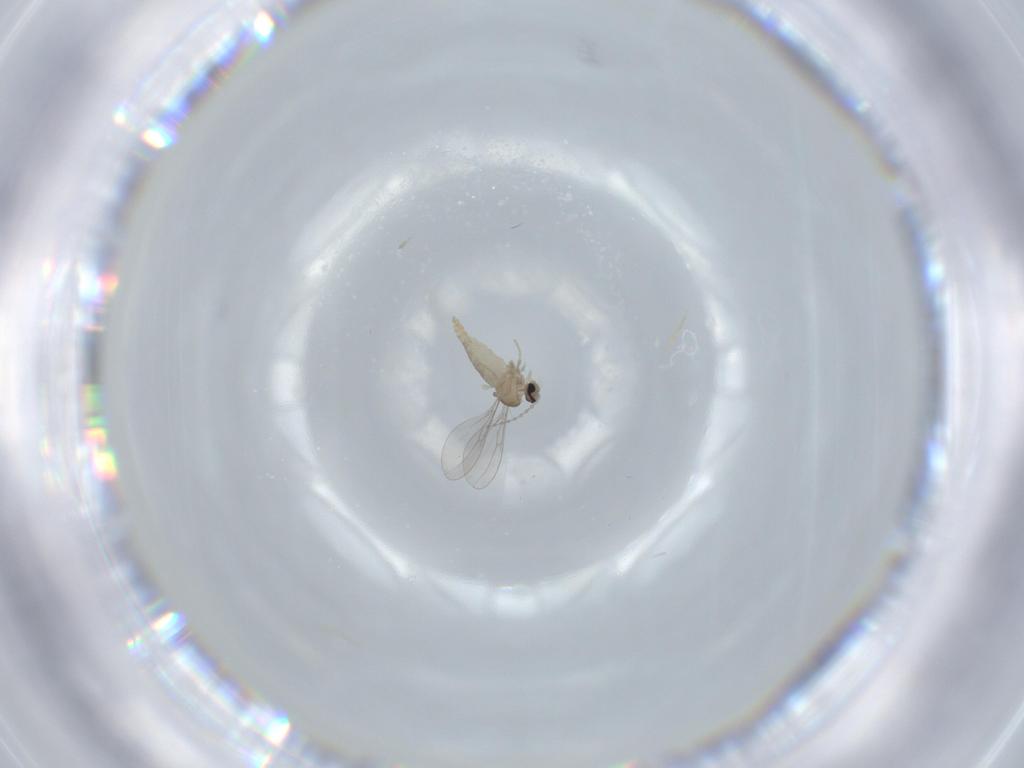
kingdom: Animalia
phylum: Arthropoda
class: Insecta
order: Diptera
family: Cecidomyiidae
